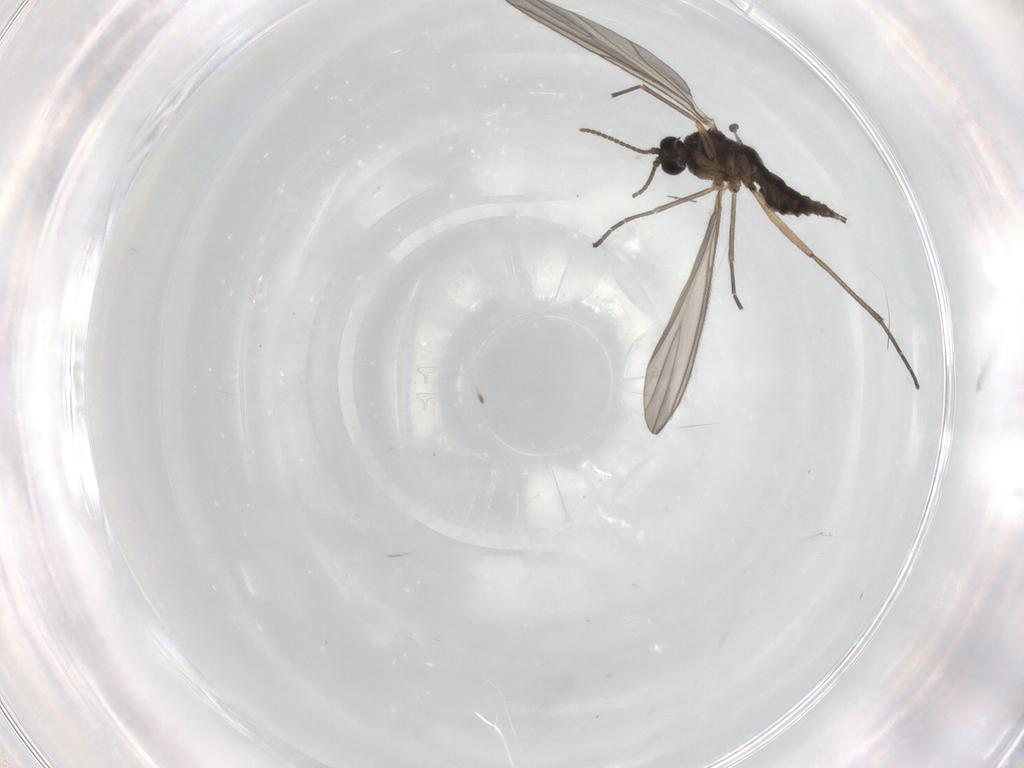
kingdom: Animalia
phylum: Arthropoda
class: Insecta
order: Diptera
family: Sciaridae
